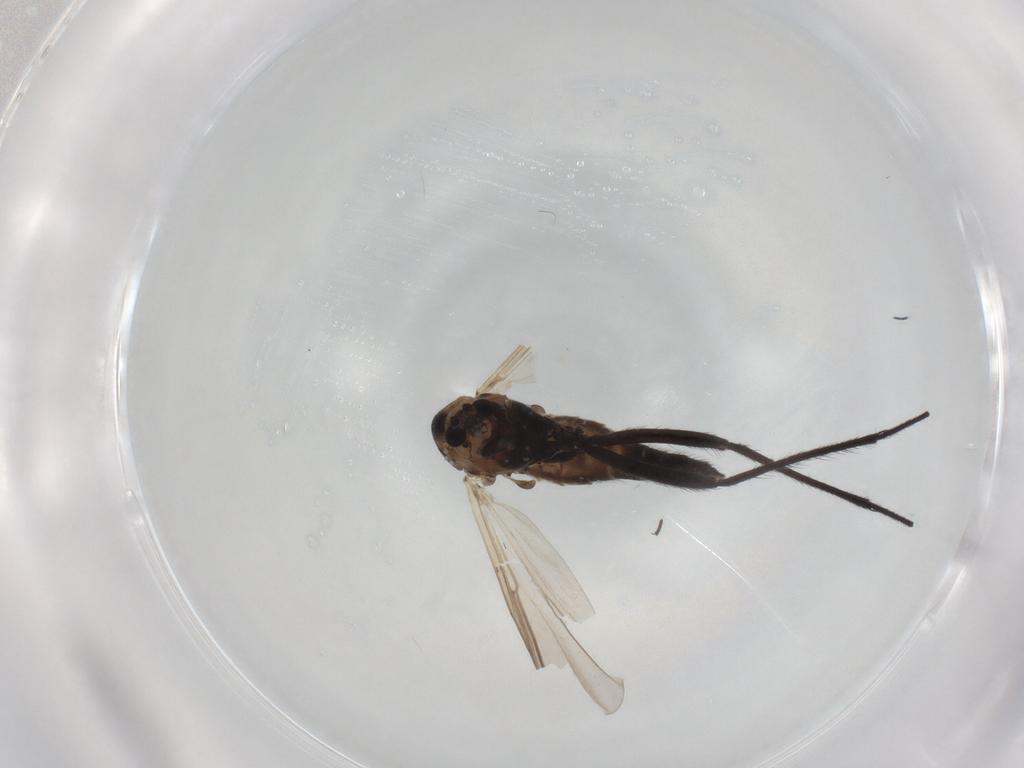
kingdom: Animalia
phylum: Arthropoda
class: Insecta
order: Diptera
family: Chironomidae
